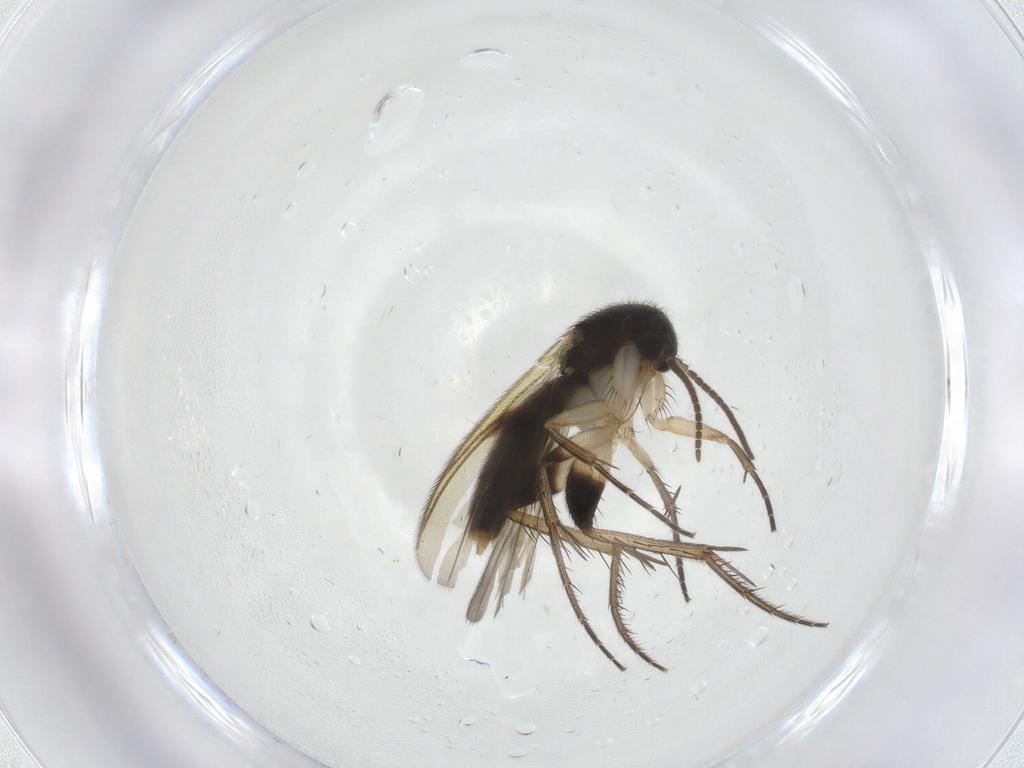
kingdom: Animalia
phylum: Arthropoda
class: Insecta
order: Diptera
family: Mycetophilidae
